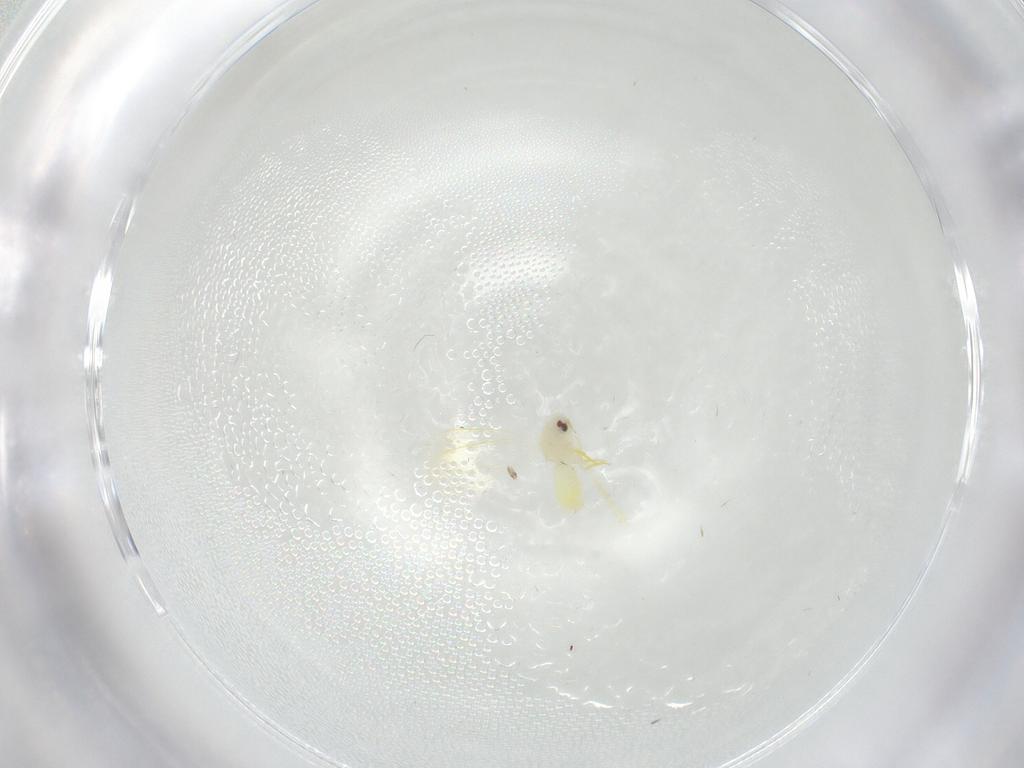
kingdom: Animalia
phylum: Arthropoda
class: Insecta
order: Hemiptera
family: Aleyrodidae
